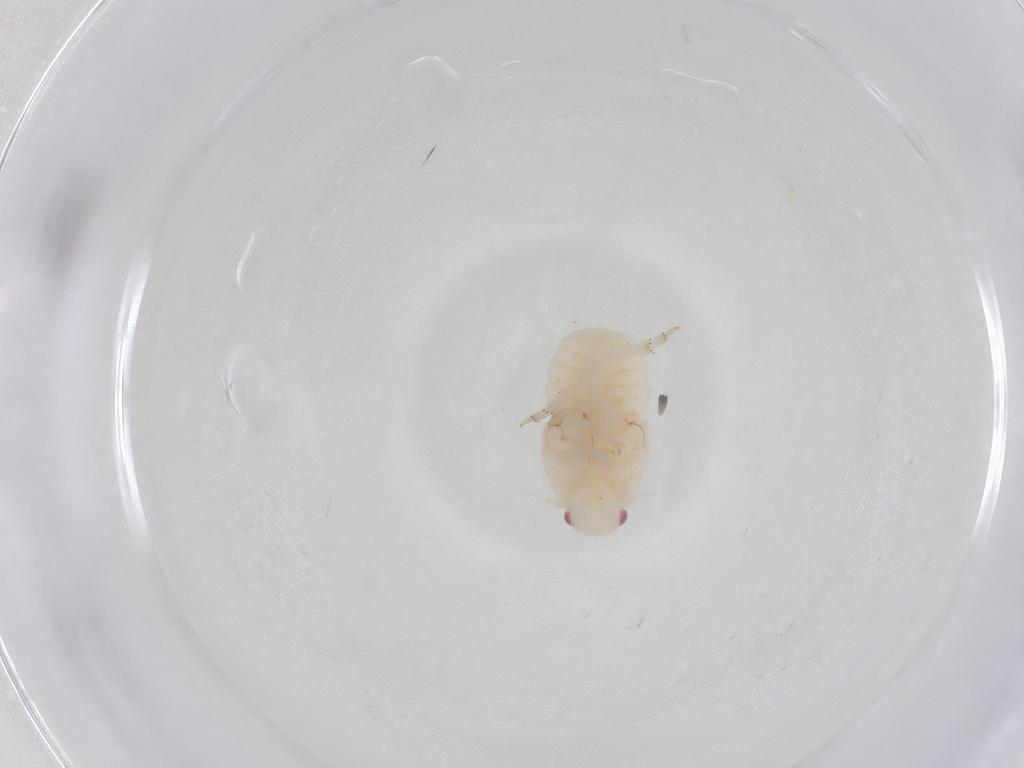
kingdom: Animalia
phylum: Arthropoda
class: Insecta
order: Hemiptera
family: Flatidae
